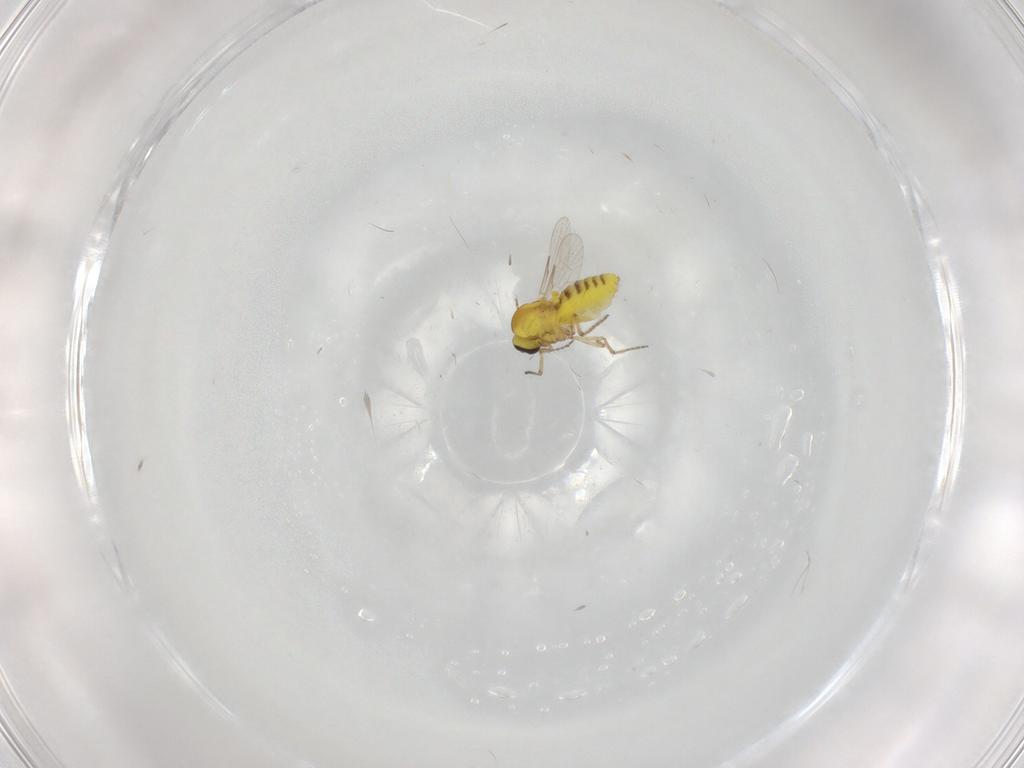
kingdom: Animalia
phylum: Arthropoda
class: Insecta
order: Diptera
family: Ceratopogonidae
